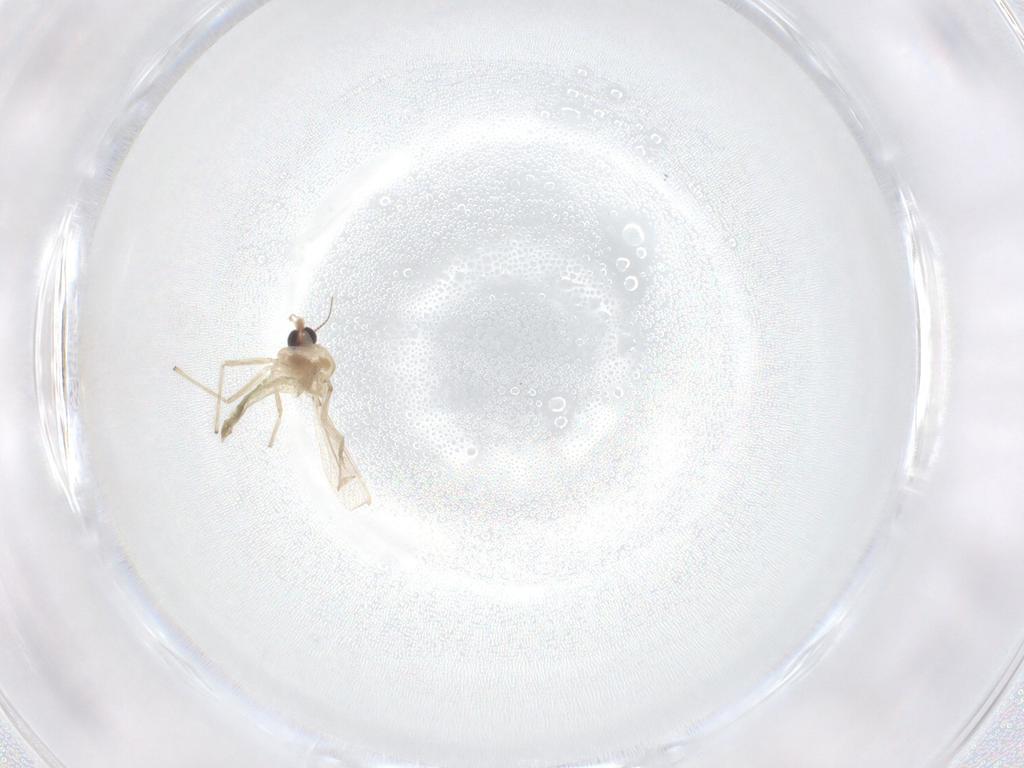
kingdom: Animalia
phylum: Arthropoda
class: Insecta
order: Diptera
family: Chironomidae
